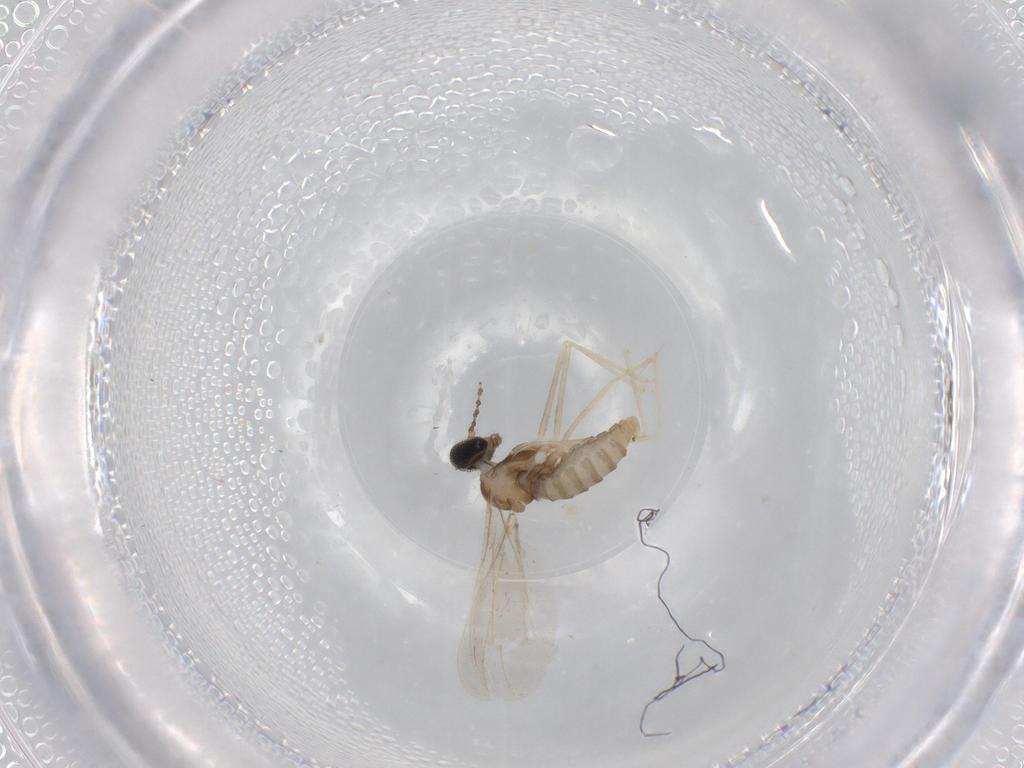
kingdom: Animalia
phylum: Arthropoda
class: Insecta
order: Diptera
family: Cecidomyiidae
